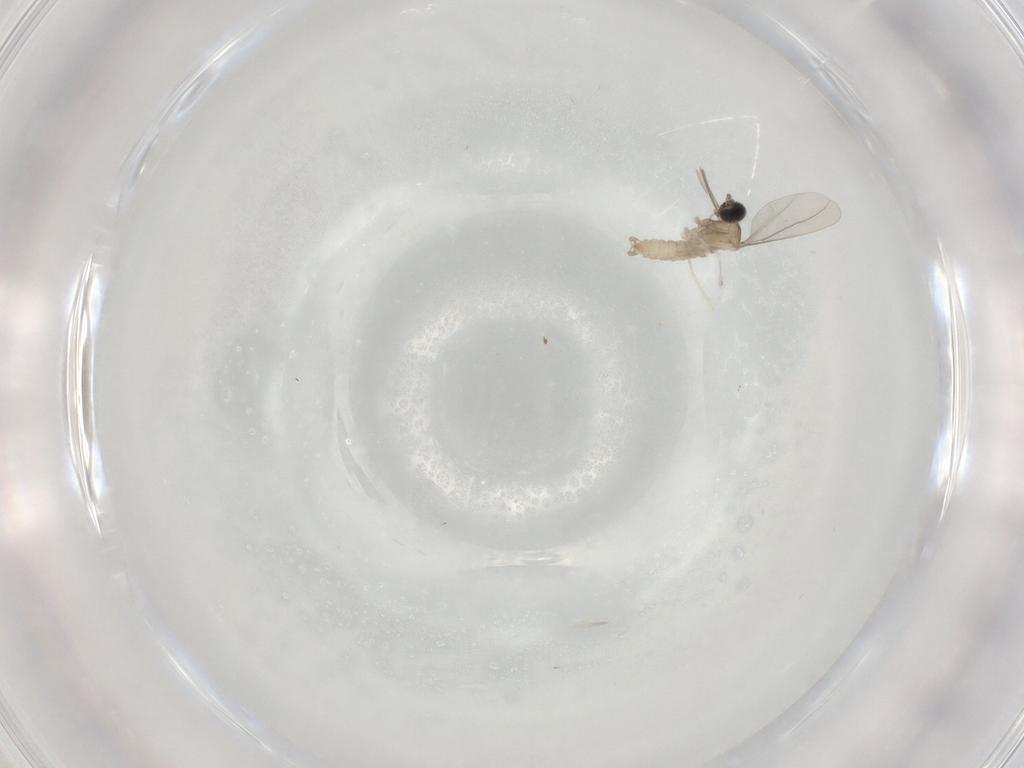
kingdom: Animalia
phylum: Arthropoda
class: Insecta
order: Diptera
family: Cecidomyiidae
